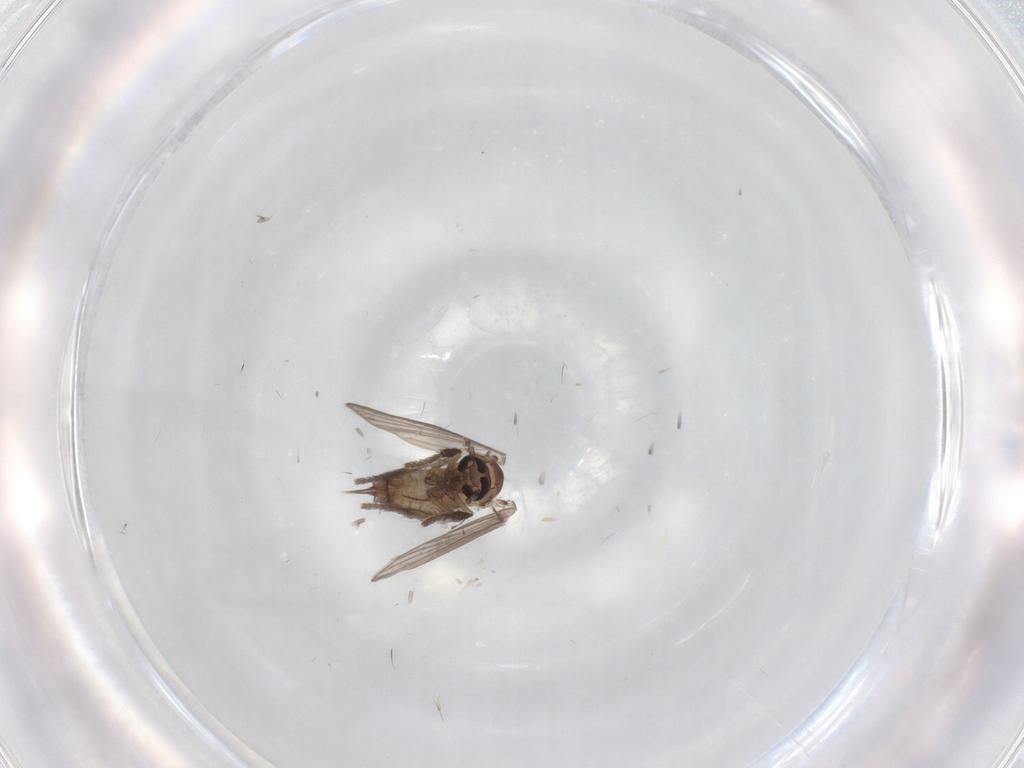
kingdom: Animalia
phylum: Arthropoda
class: Insecta
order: Diptera
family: Psychodidae
